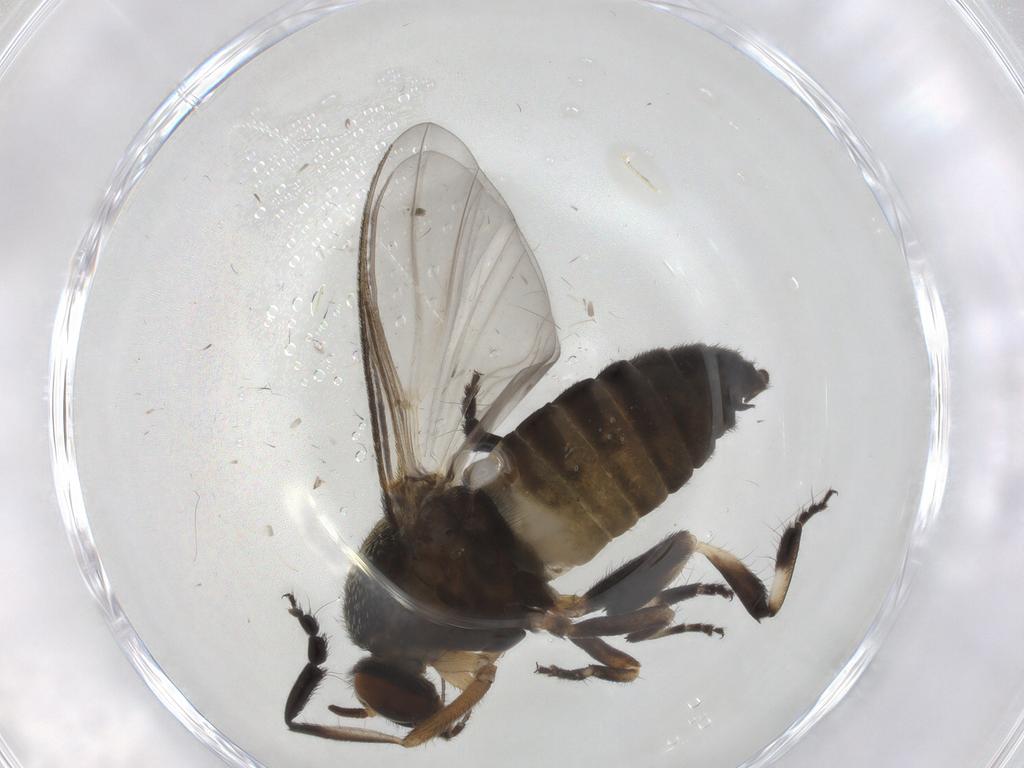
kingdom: Animalia
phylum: Arthropoda
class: Insecta
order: Diptera
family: Simuliidae
